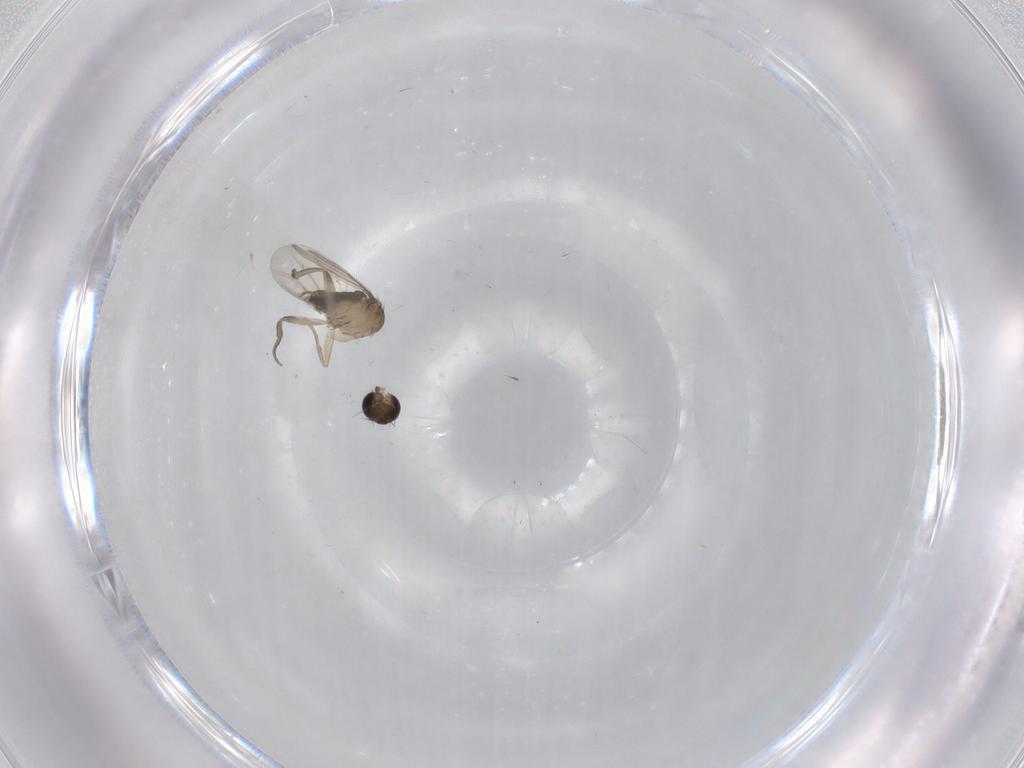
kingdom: Animalia
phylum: Arthropoda
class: Insecta
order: Diptera
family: Phoridae
